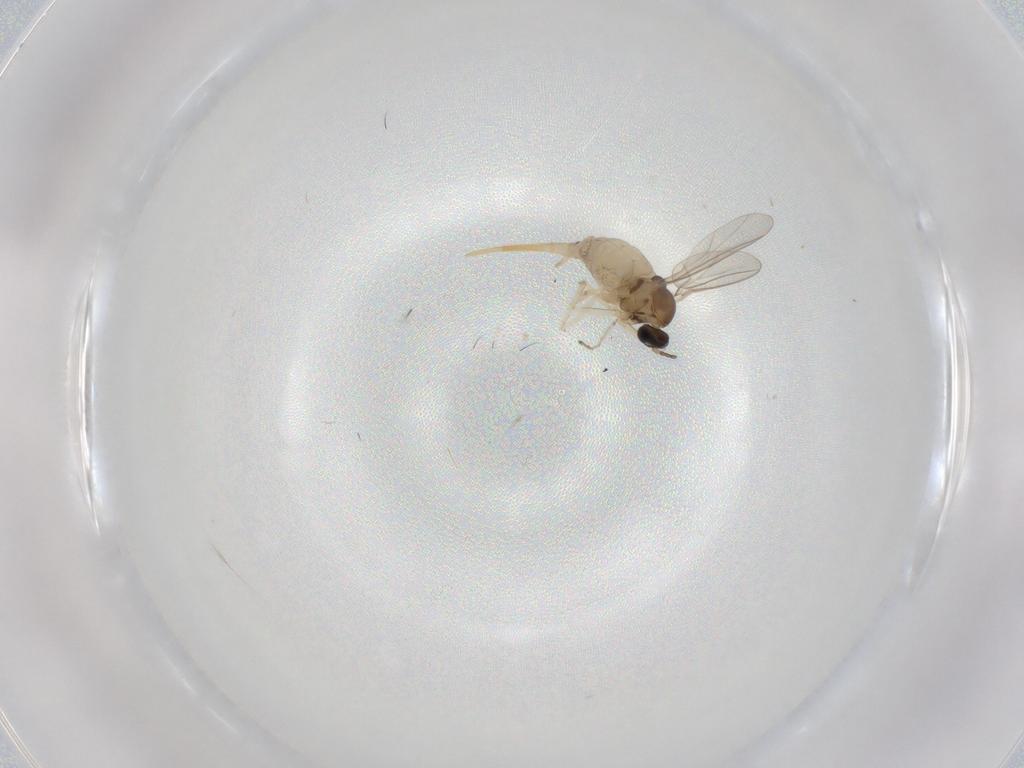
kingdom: Animalia
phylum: Arthropoda
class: Insecta
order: Diptera
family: Cecidomyiidae
